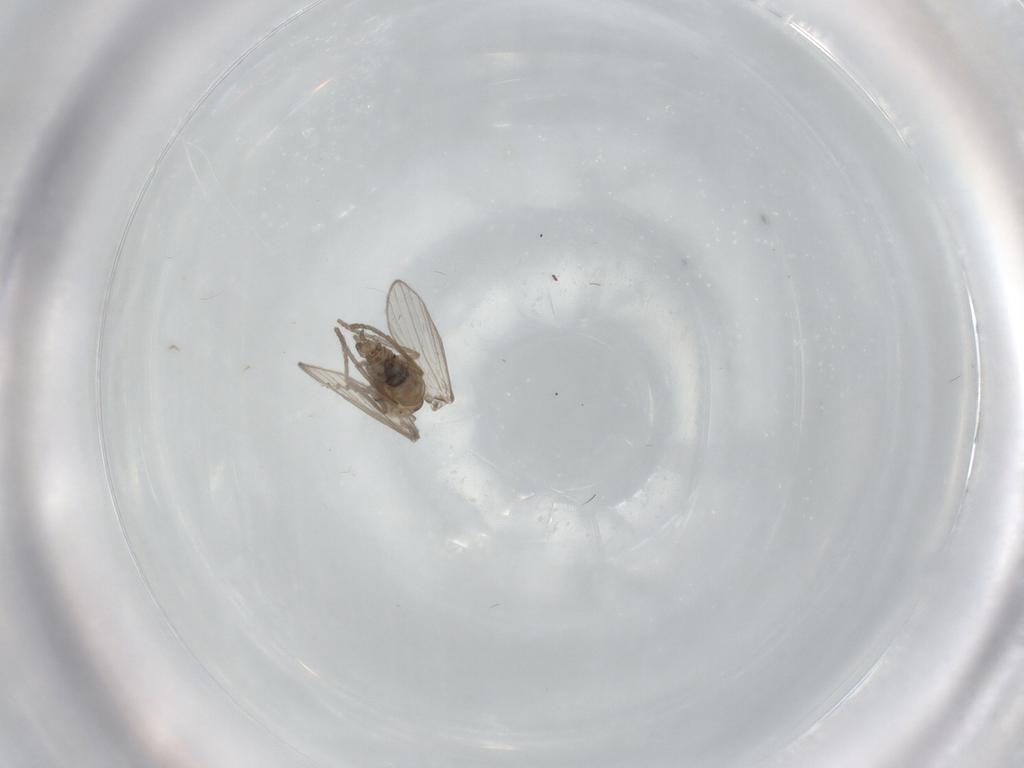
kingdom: Animalia
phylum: Arthropoda
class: Insecta
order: Diptera
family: Psychodidae
